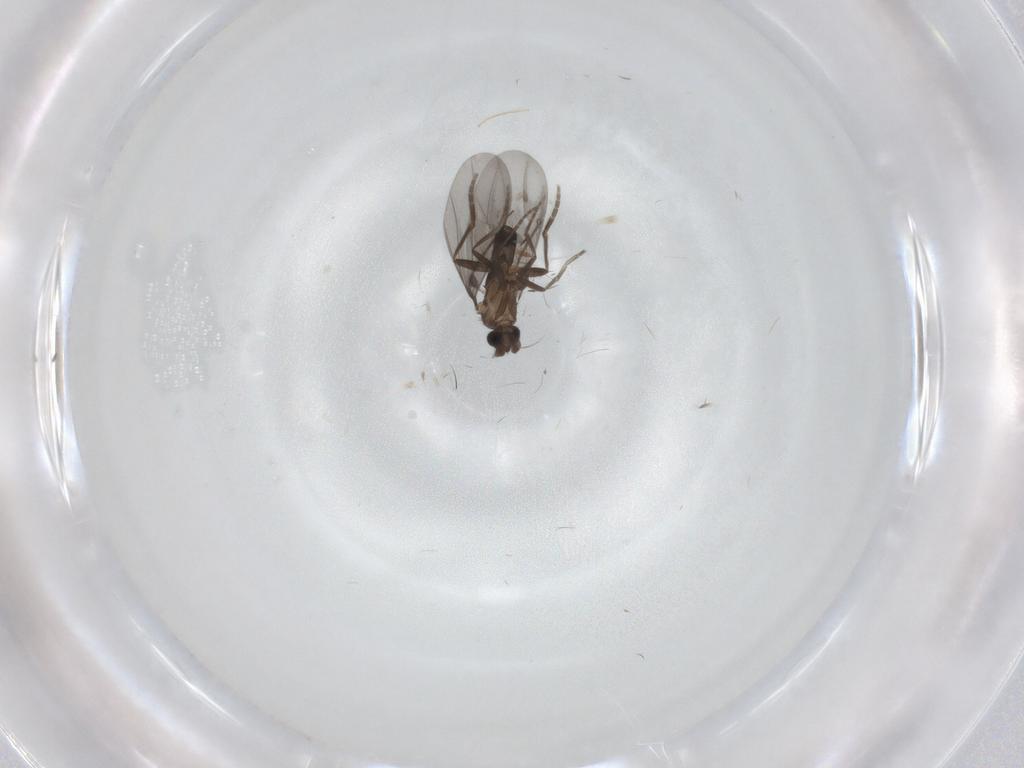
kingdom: Animalia
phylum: Arthropoda
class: Insecta
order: Diptera
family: Phoridae
